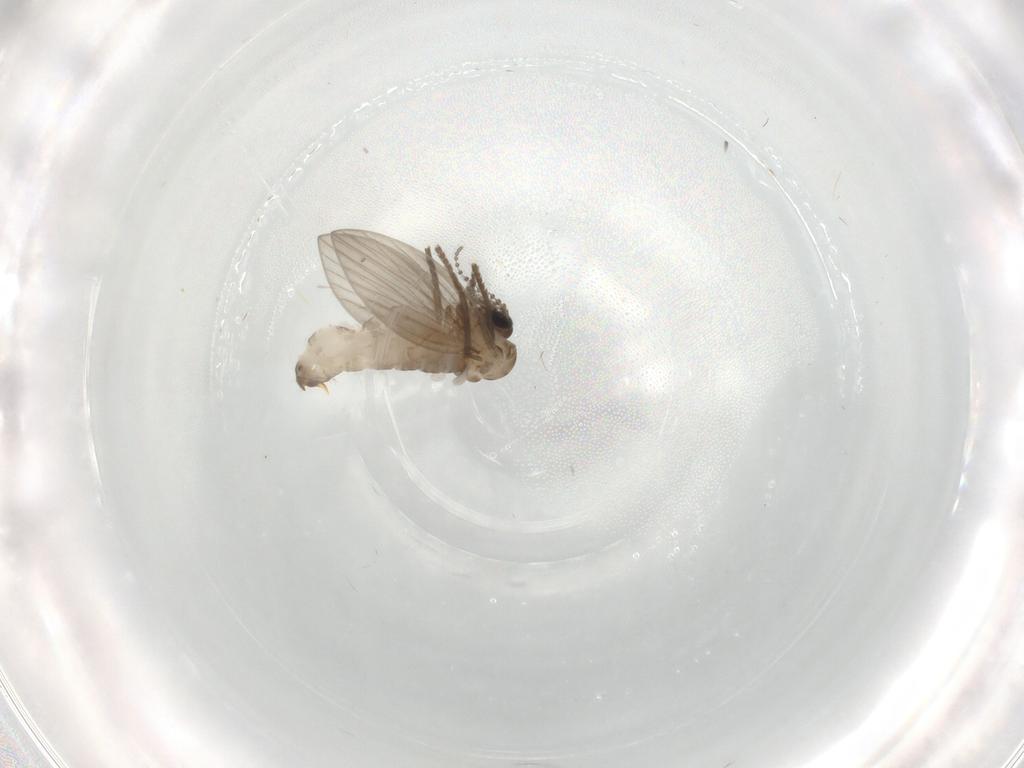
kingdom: Animalia
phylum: Arthropoda
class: Insecta
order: Diptera
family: Psychodidae
